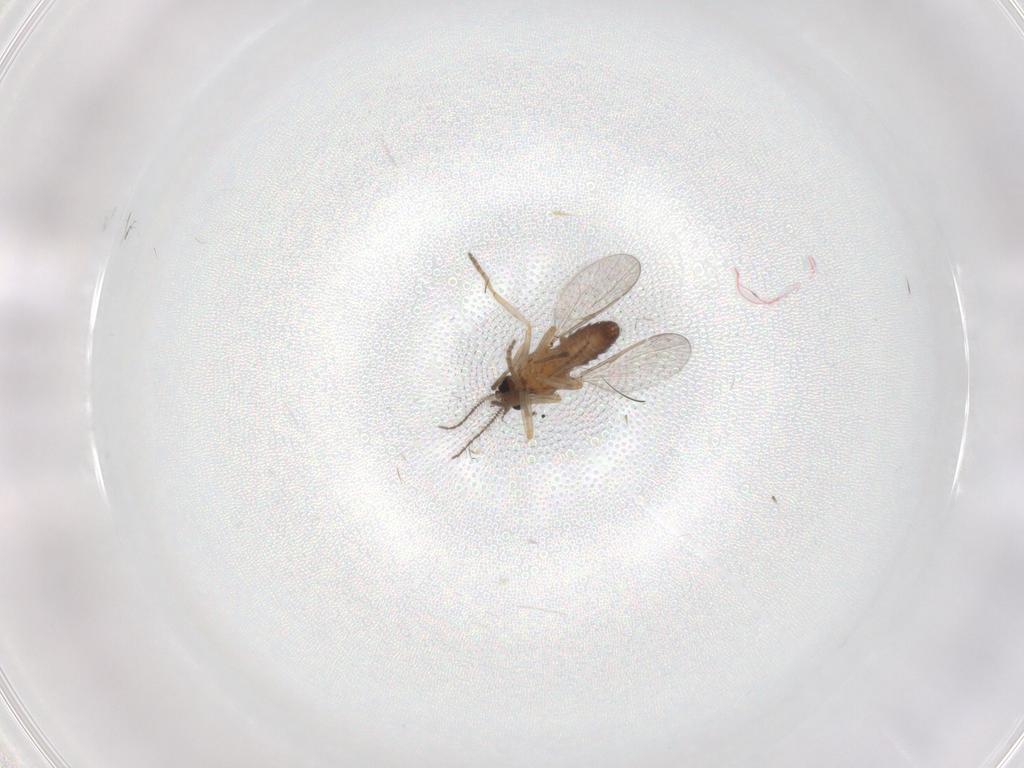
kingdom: Animalia
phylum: Arthropoda
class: Insecta
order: Diptera
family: Ceratopogonidae
